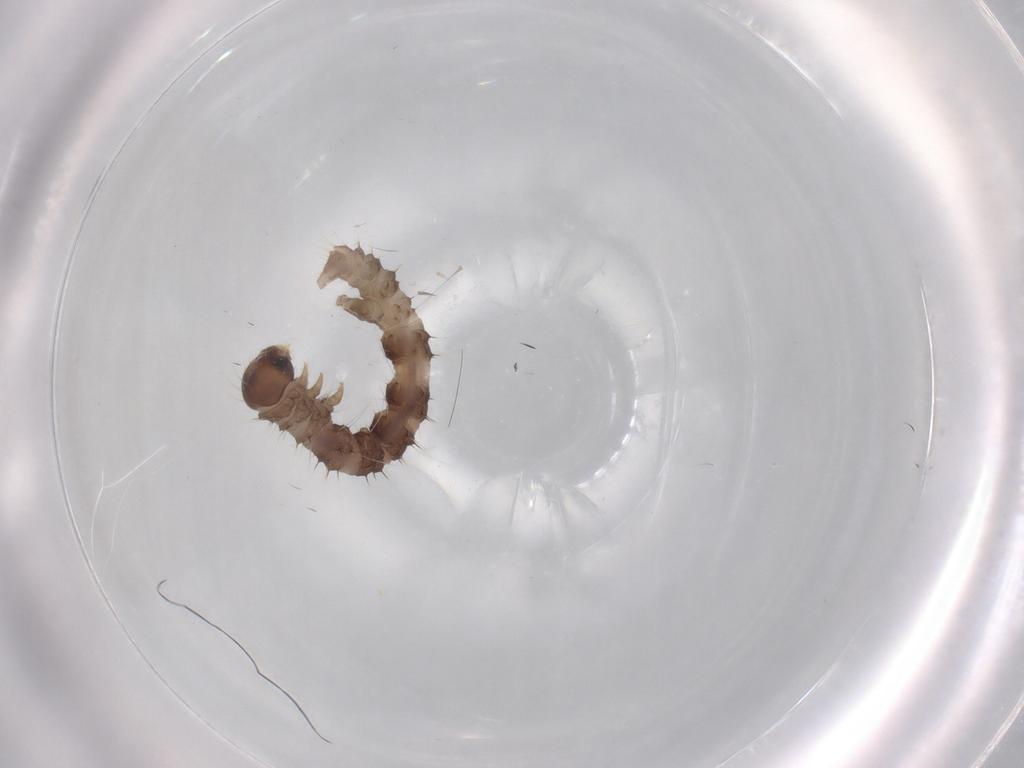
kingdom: Animalia
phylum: Arthropoda
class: Insecta
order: Lepidoptera
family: Geometridae
